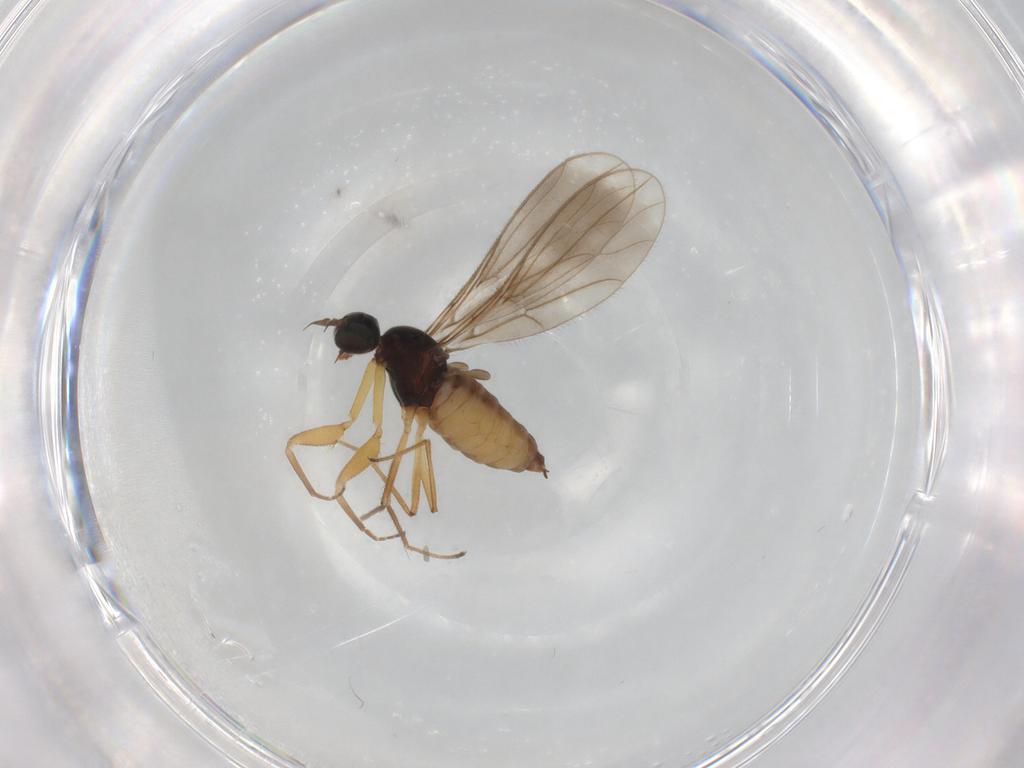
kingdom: Animalia
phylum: Arthropoda
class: Insecta
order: Diptera
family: Empididae
